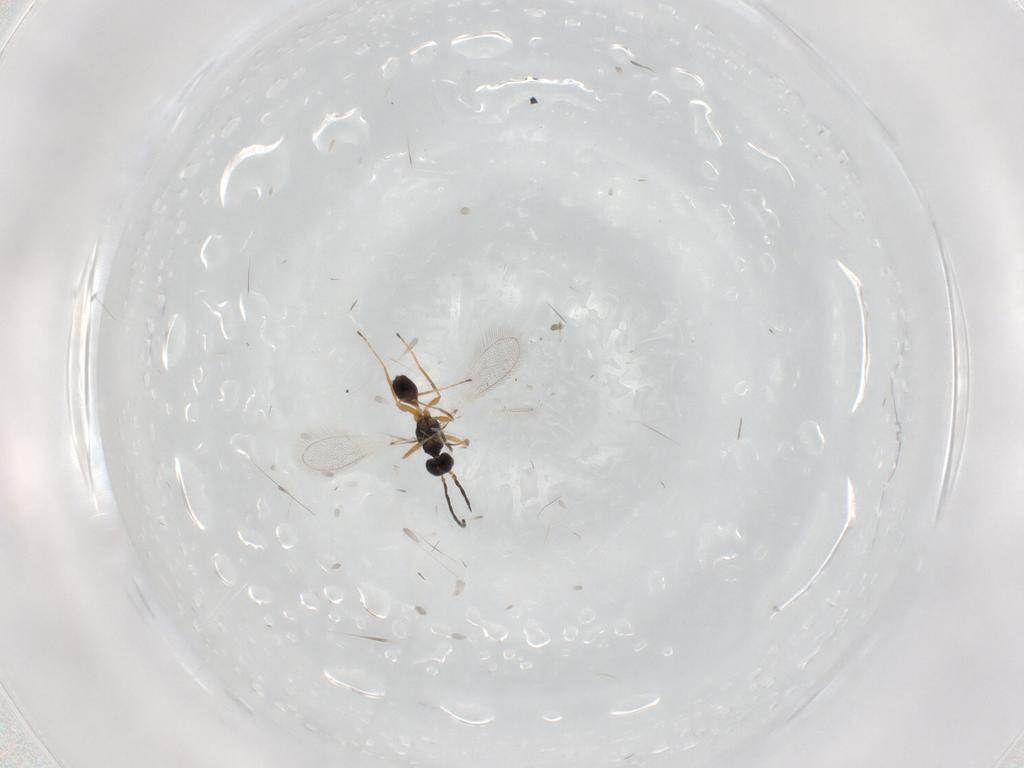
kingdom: Animalia
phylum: Arthropoda
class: Insecta
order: Hymenoptera
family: Mymaridae
